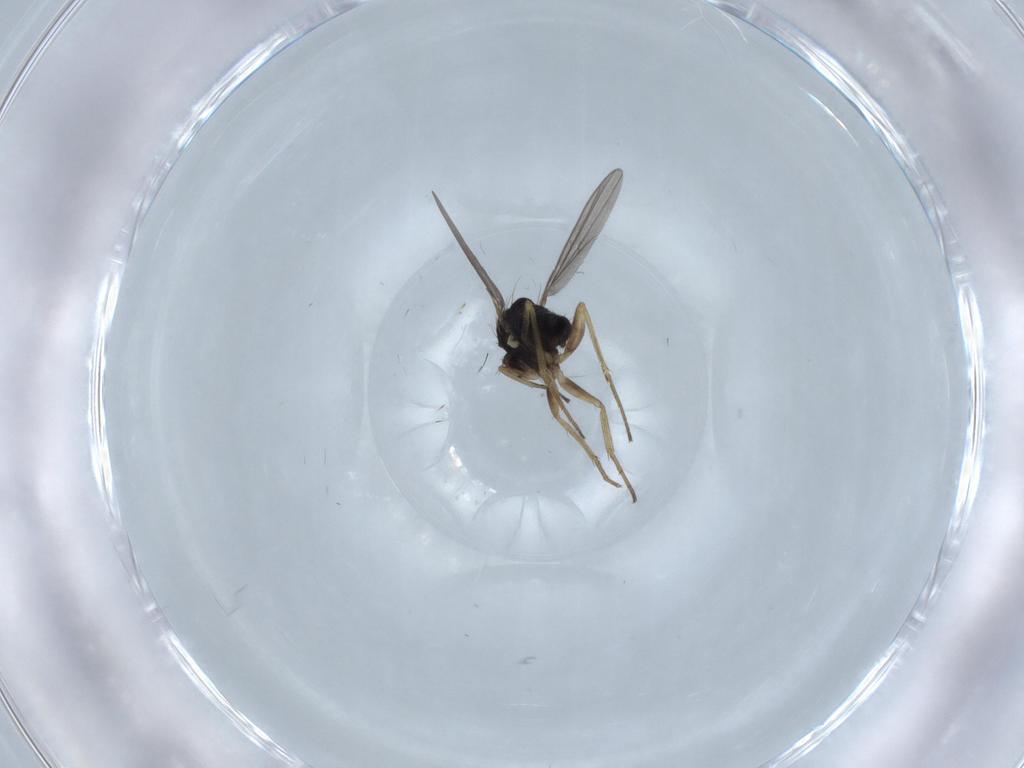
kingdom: Animalia
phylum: Arthropoda
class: Insecta
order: Diptera
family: Dolichopodidae
